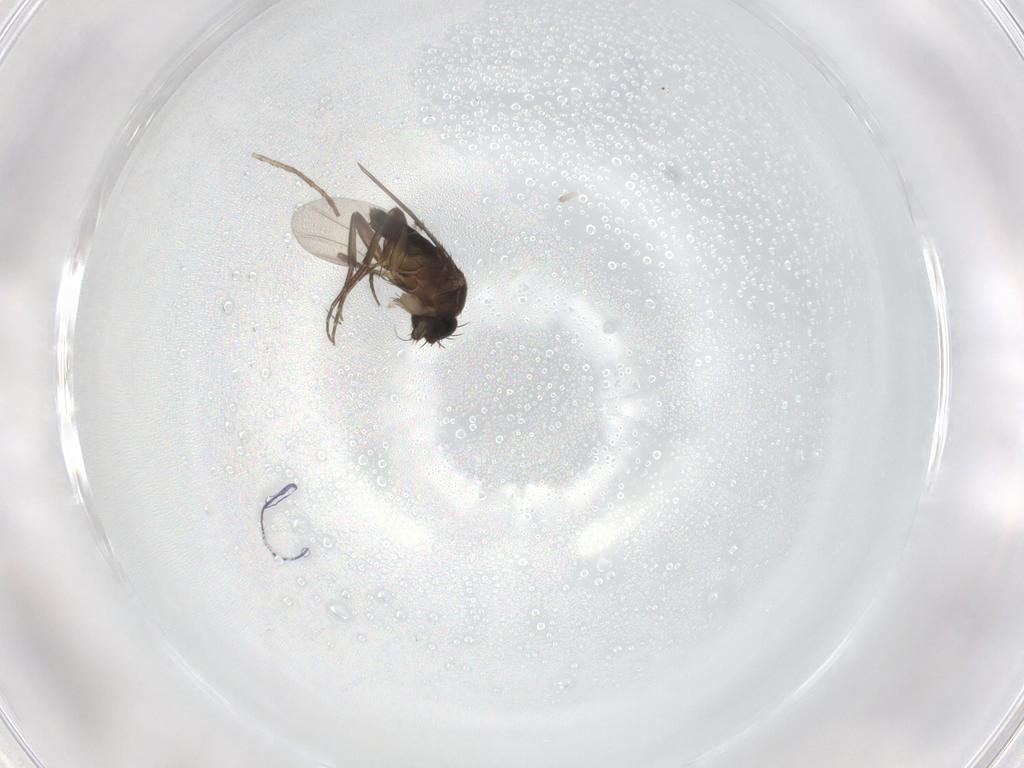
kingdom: Animalia
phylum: Arthropoda
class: Insecta
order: Diptera
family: Phoridae
